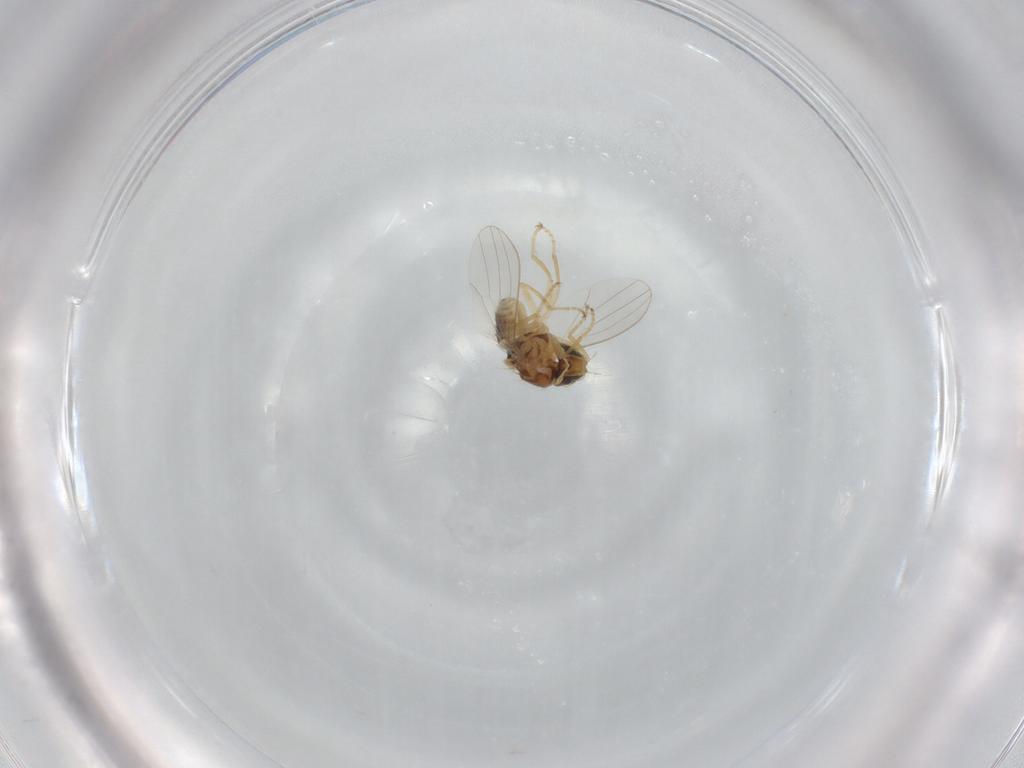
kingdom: Animalia
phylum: Arthropoda
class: Insecta
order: Diptera
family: Chyromyidae
